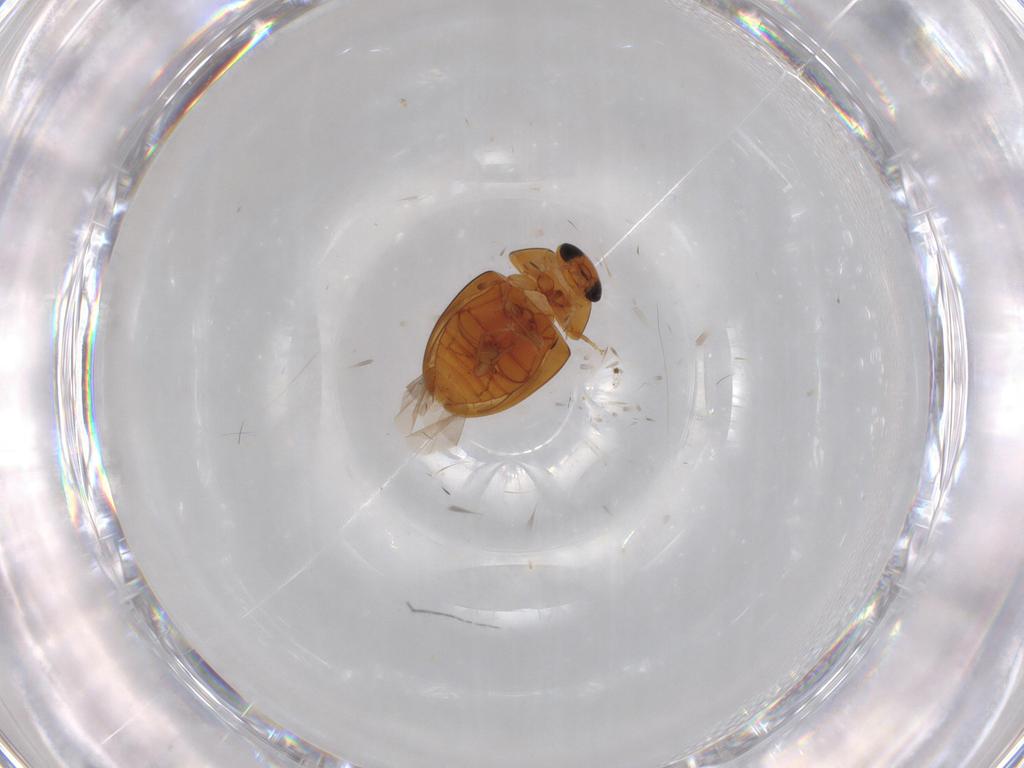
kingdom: Animalia
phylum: Arthropoda
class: Insecta
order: Coleoptera
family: Phalacridae
